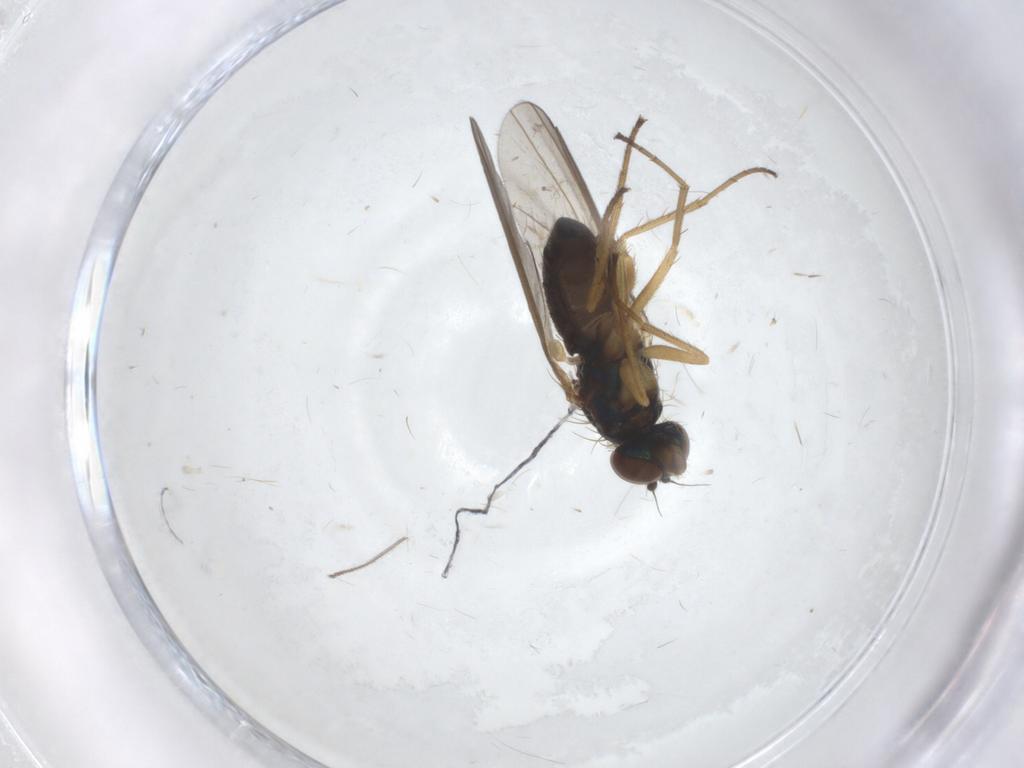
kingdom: Animalia
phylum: Arthropoda
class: Insecta
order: Diptera
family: Dolichopodidae
